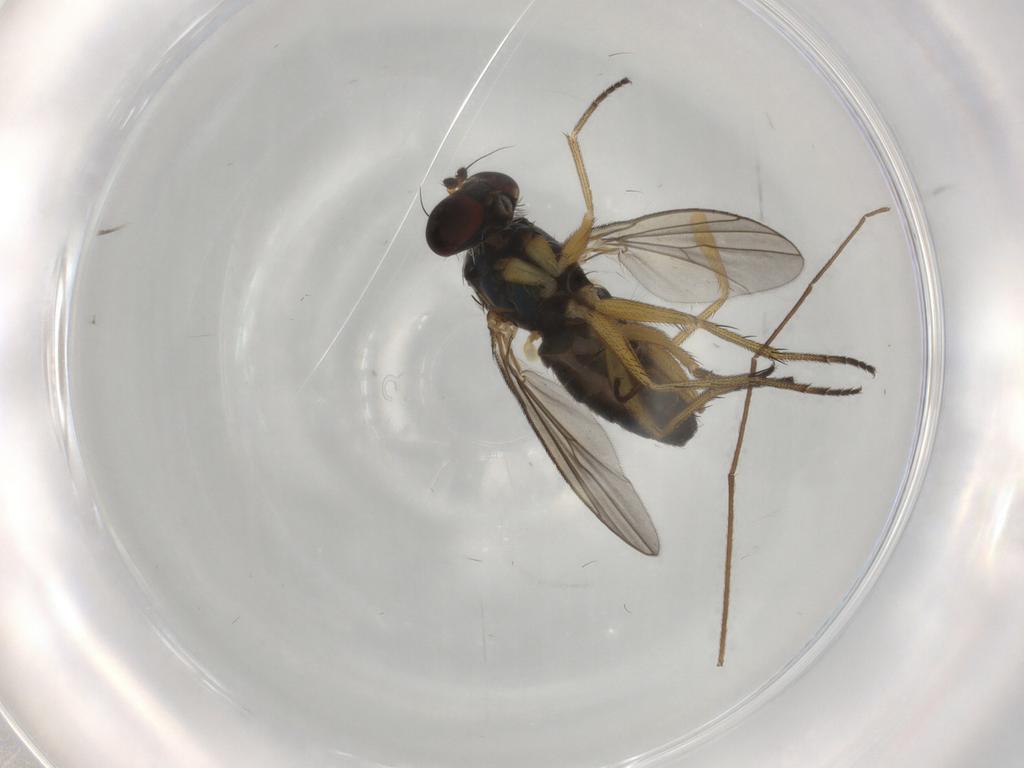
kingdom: Animalia
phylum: Arthropoda
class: Insecta
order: Diptera
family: Dolichopodidae
